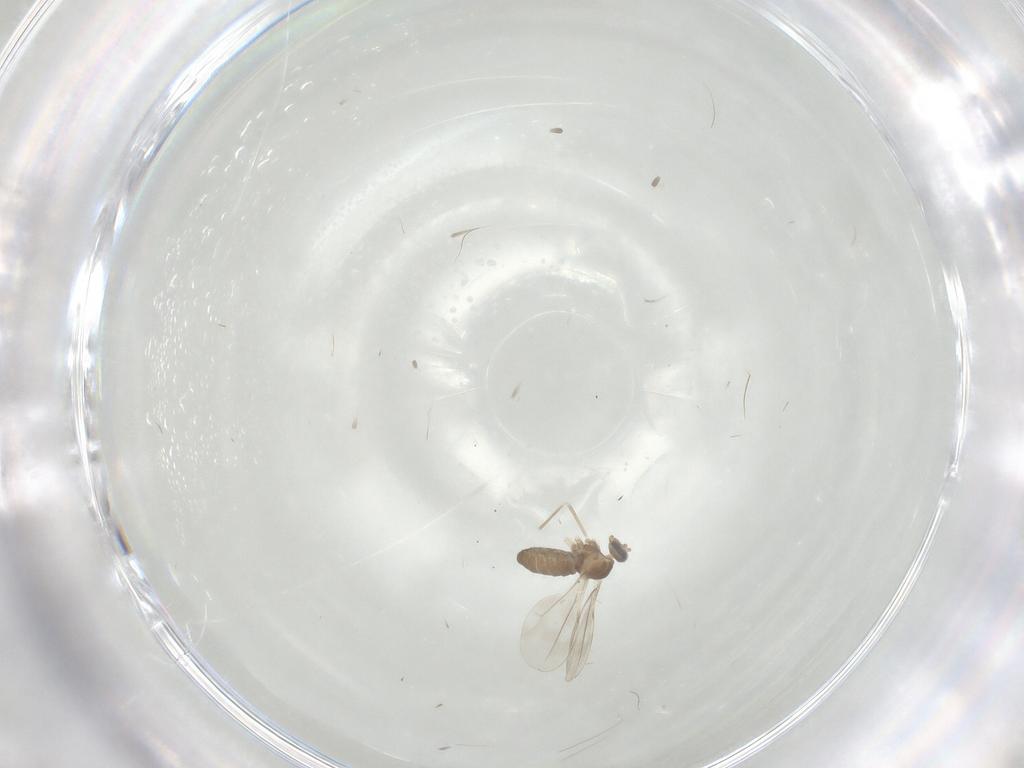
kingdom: Animalia
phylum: Arthropoda
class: Insecta
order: Diptera
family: Cecidomyiidae
